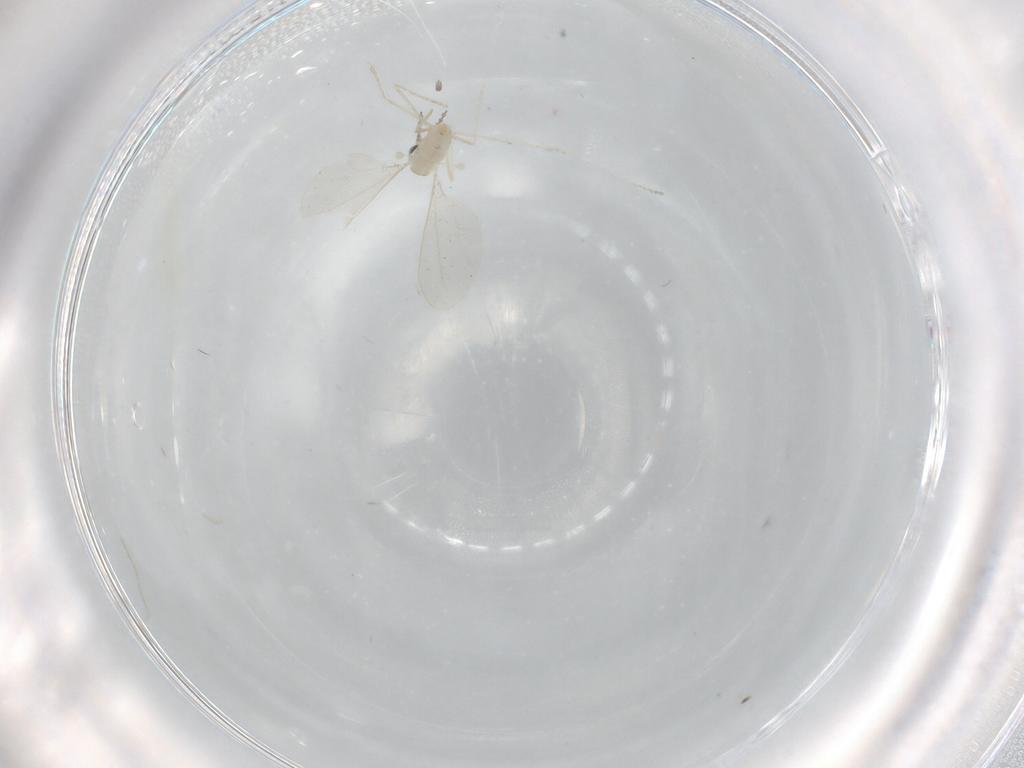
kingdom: Animalia
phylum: Arthropoda
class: Insecta
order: Diptera
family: Sciaridae
